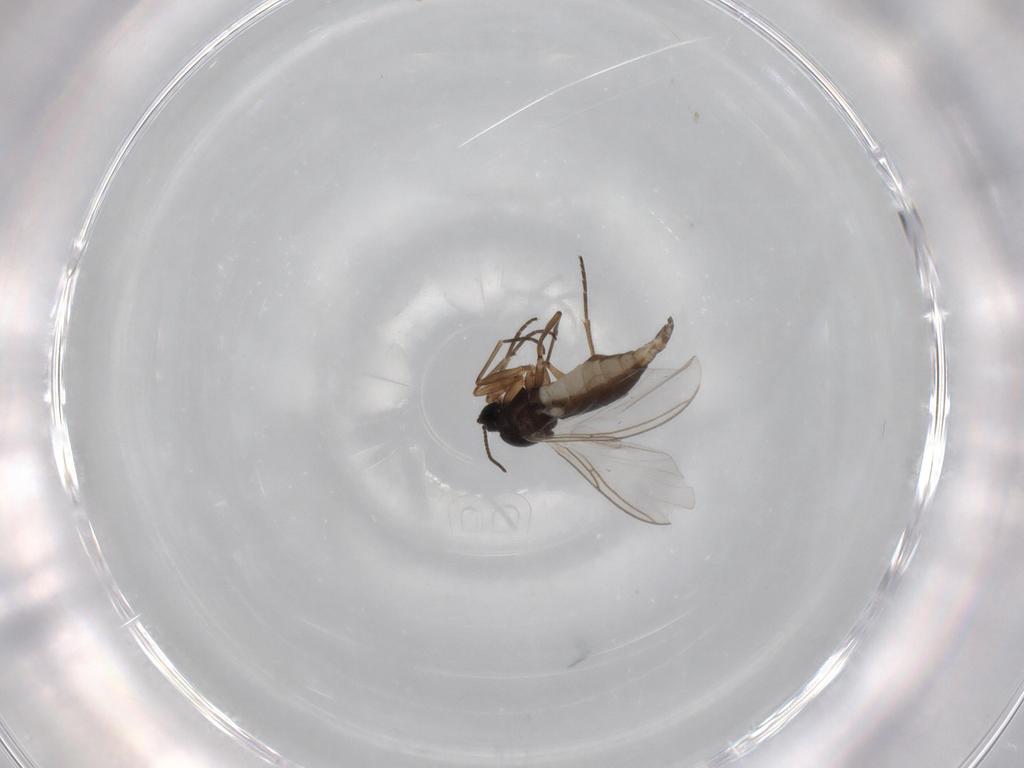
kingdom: Animalia
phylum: Arthropoda
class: Insecta
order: Diptera
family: Sciaridae
